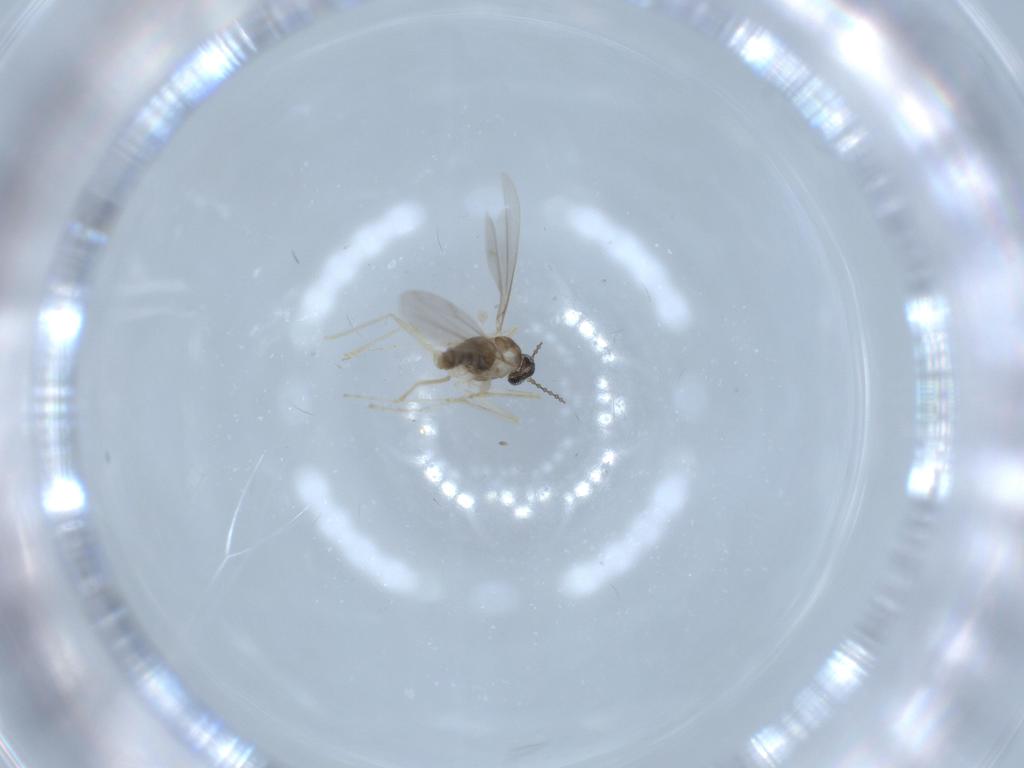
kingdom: Animalia
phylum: Arthropoda
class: Insecta
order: Diptera
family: Cecidomyiidae
